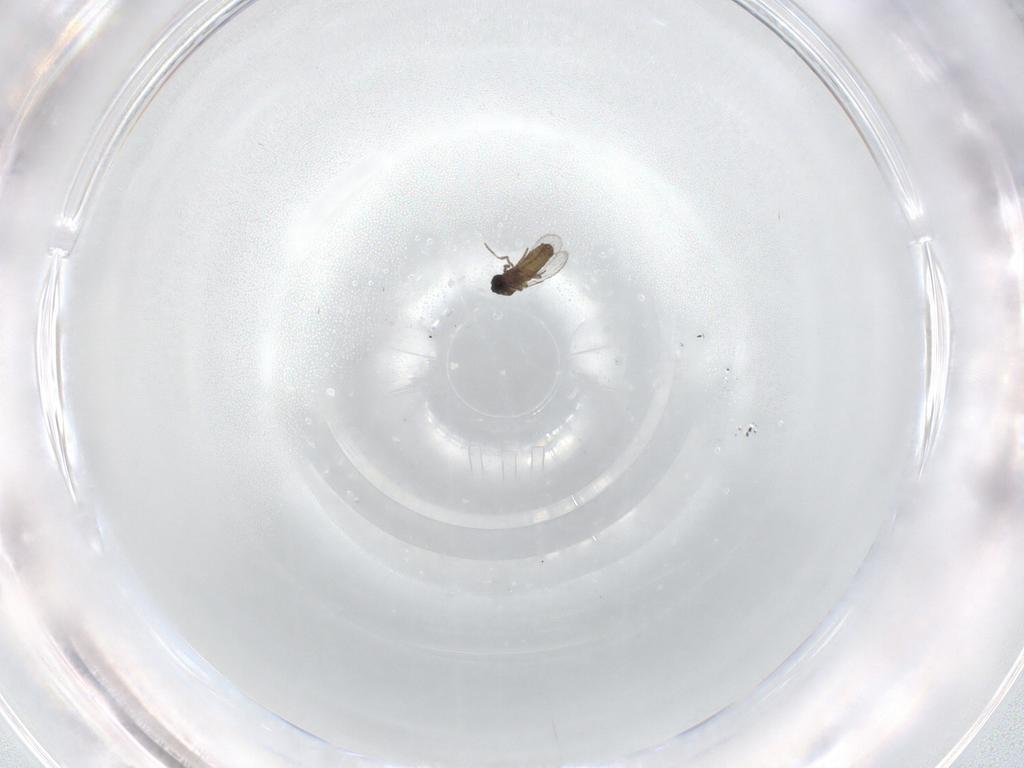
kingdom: Animalia
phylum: Arthropoda
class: Insecta
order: Diptera
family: Ceratopogonidae
